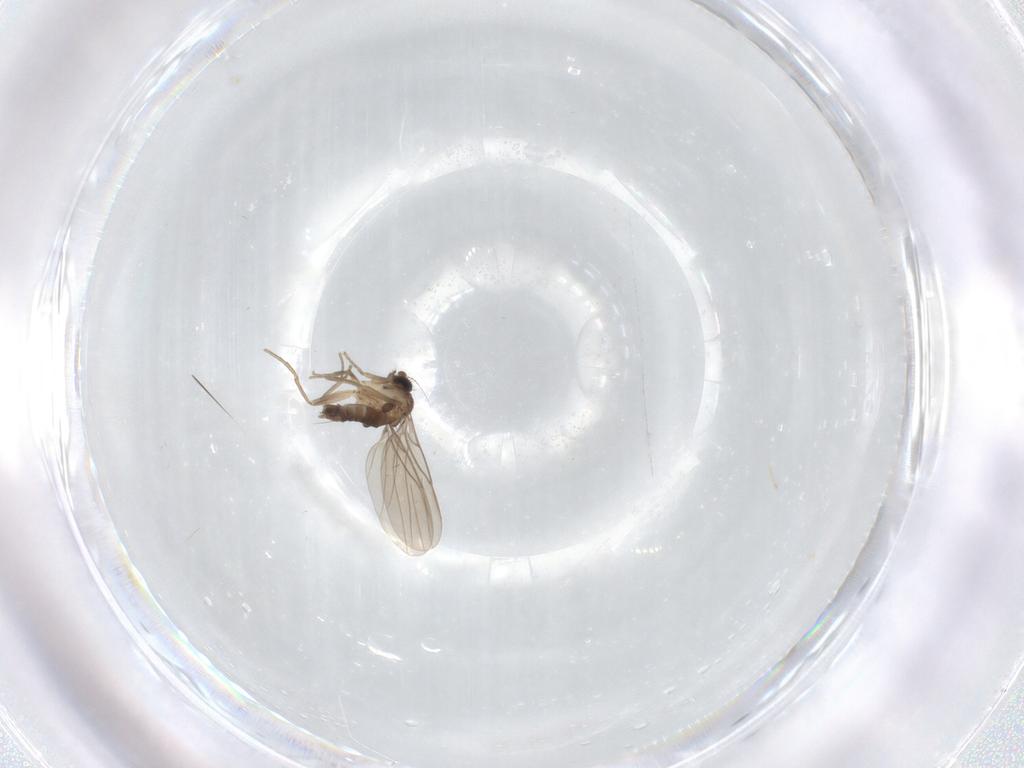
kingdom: Animalia
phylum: Arthropoda
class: Insecta
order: Diptera
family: Phoridae
